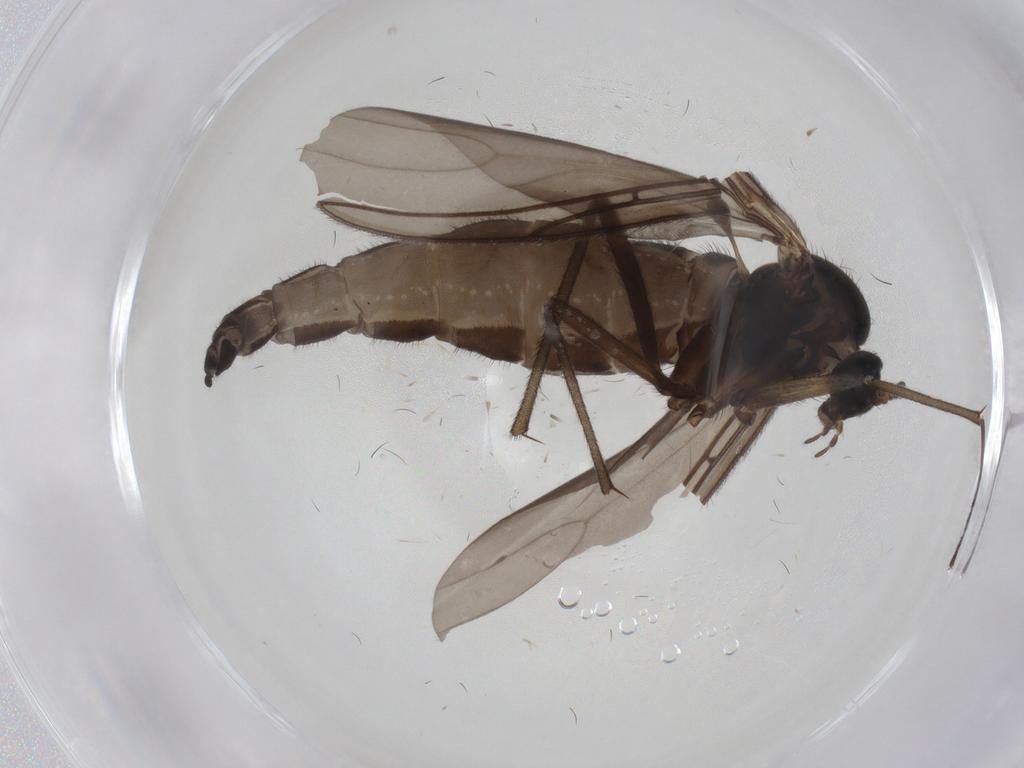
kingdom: Animalia
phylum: Arthropoda
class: Insecta
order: Diptera
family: Sciaridae
